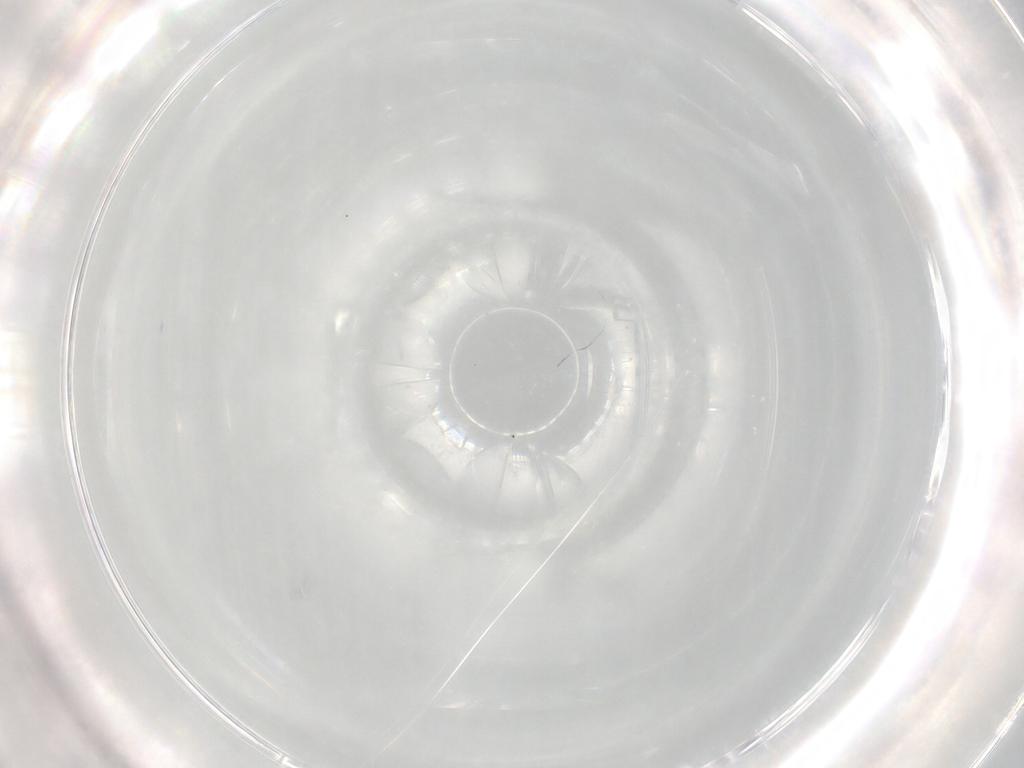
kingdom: Animalia
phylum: Arthropoda
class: Arachnida
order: Sarcoptiformes
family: Oribatulidae
